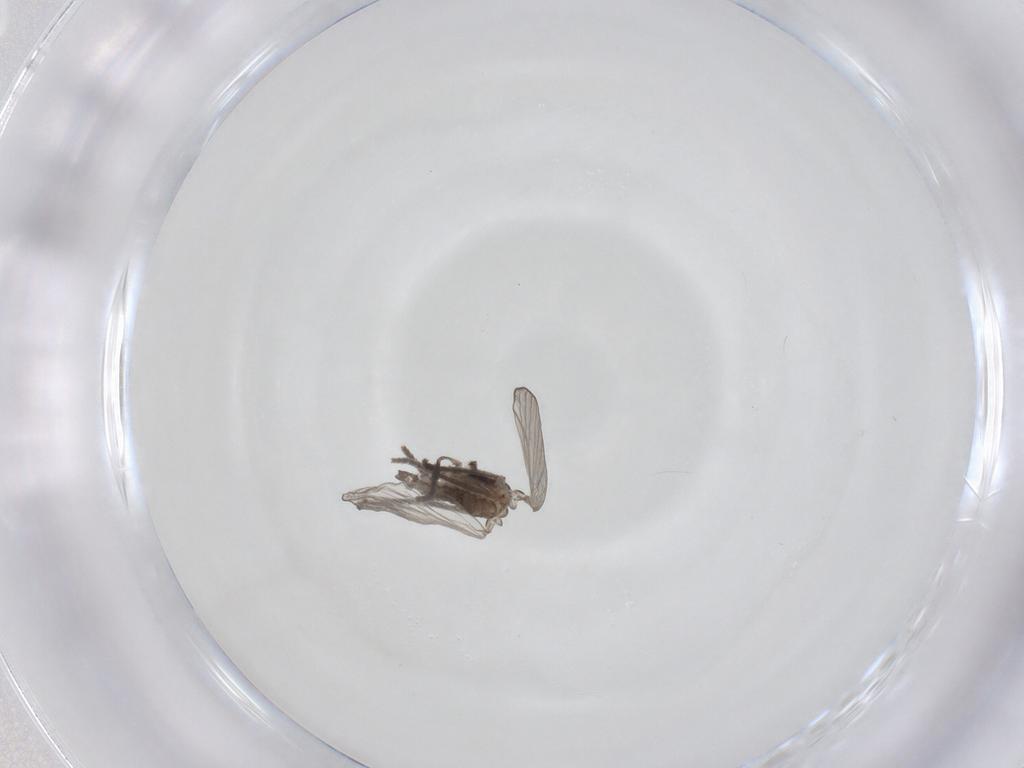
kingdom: Animalia
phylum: Arthropoda
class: Insecta
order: Diptera
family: Psychodidae
